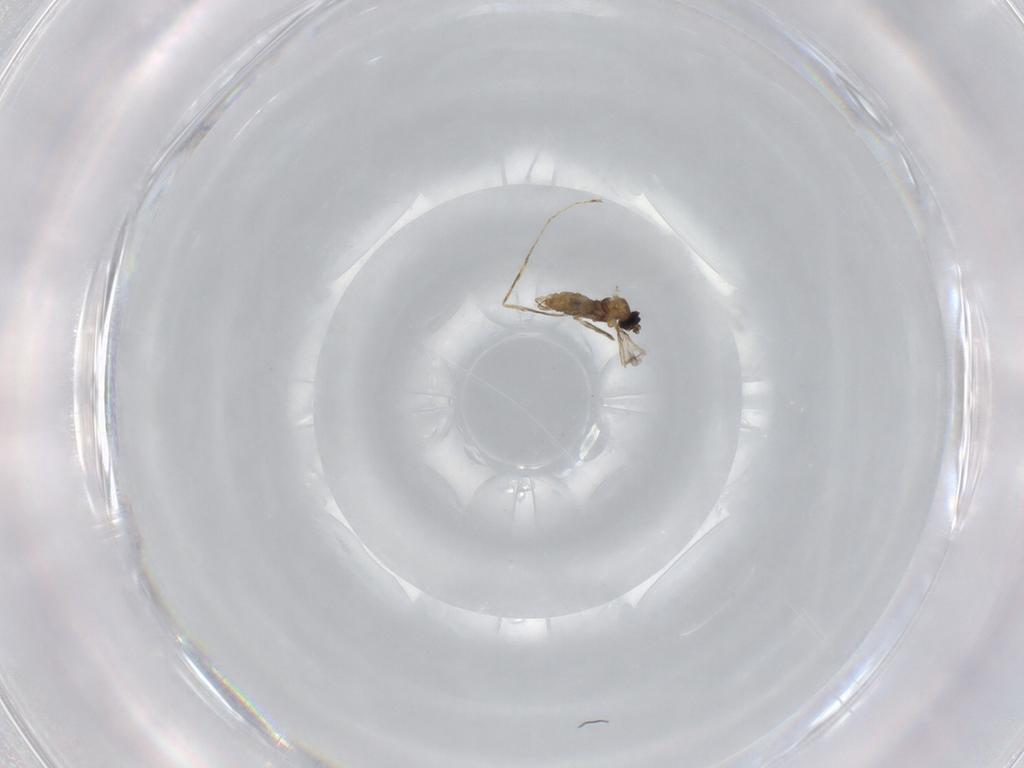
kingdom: Animalia
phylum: Arthropoda
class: Insecta
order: Diptera
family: Cecidomyiidae
